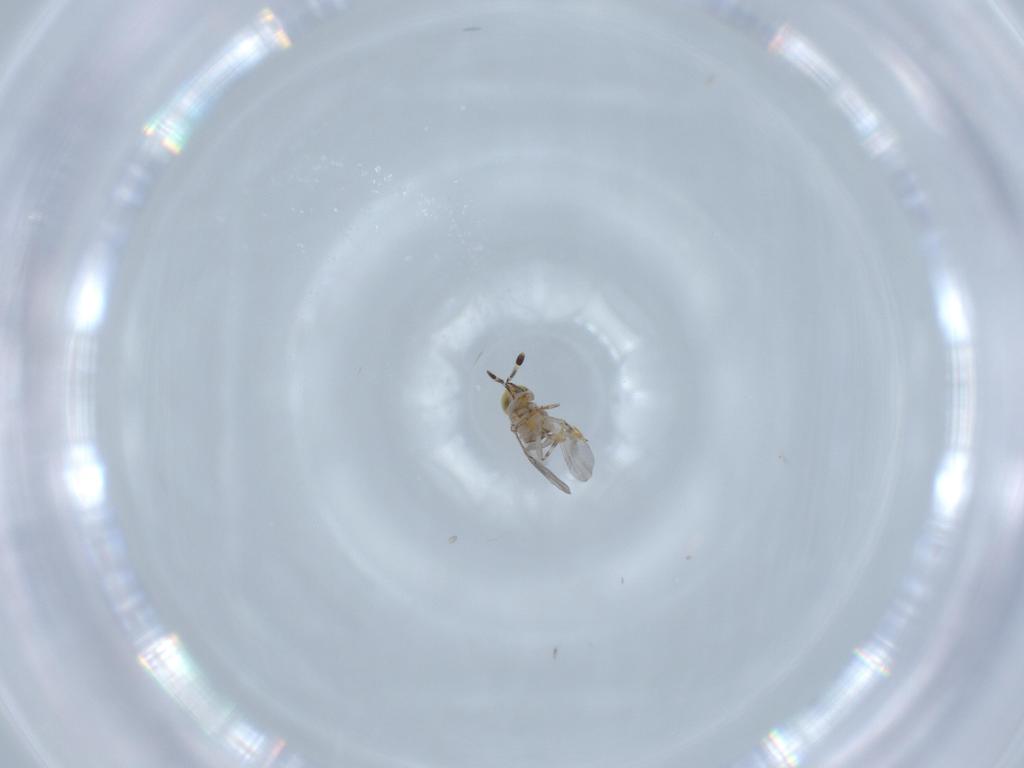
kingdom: Animalia
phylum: Arthropoda
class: Insecta
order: Hymenoptera
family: Encyrtidae
